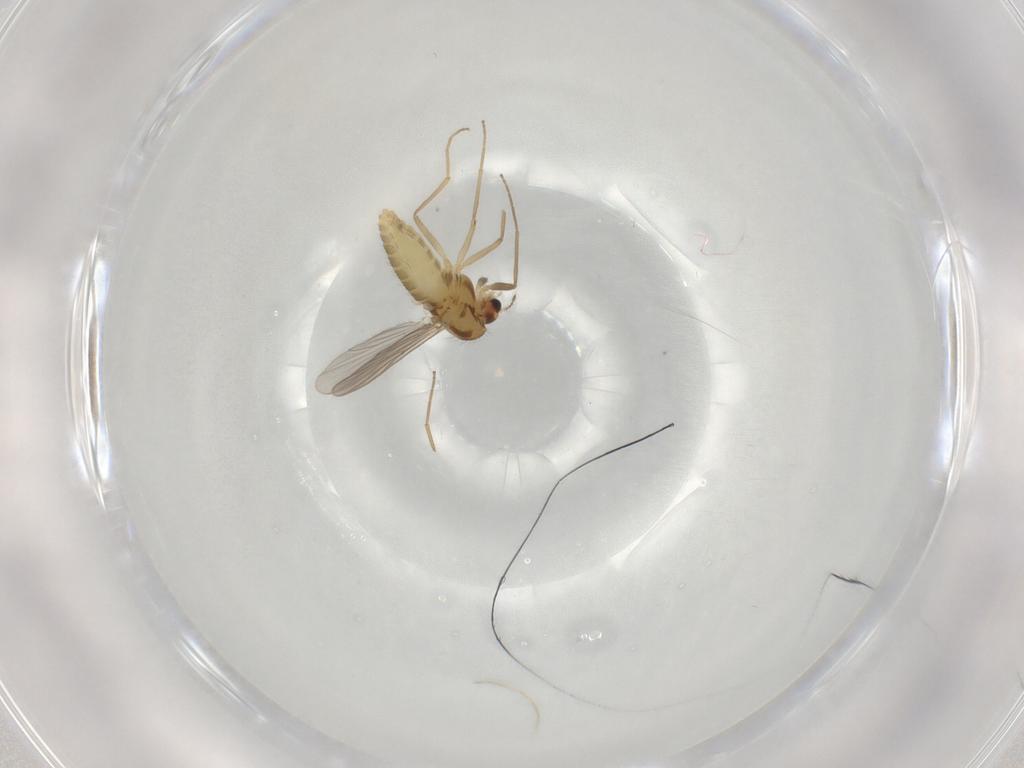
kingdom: Animalia
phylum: Arthropoda
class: Insecta
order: Diptera
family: Chironomidae
